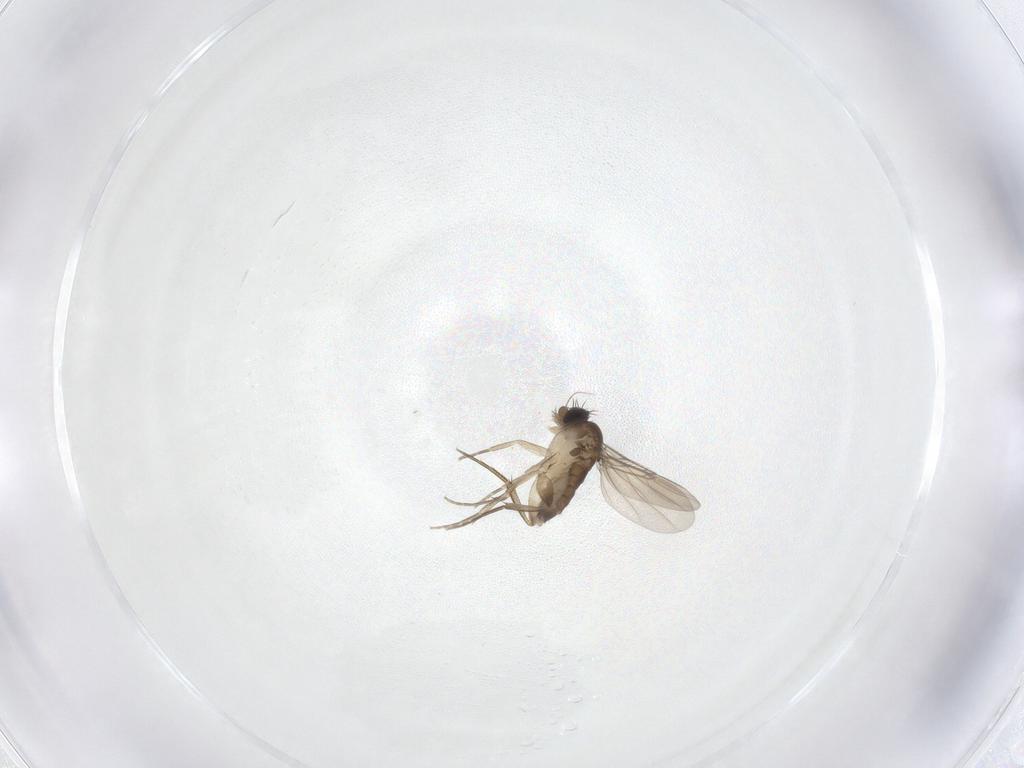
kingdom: Animalia
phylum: Arthropoda
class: Insecta
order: Diptera
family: Phoridae
